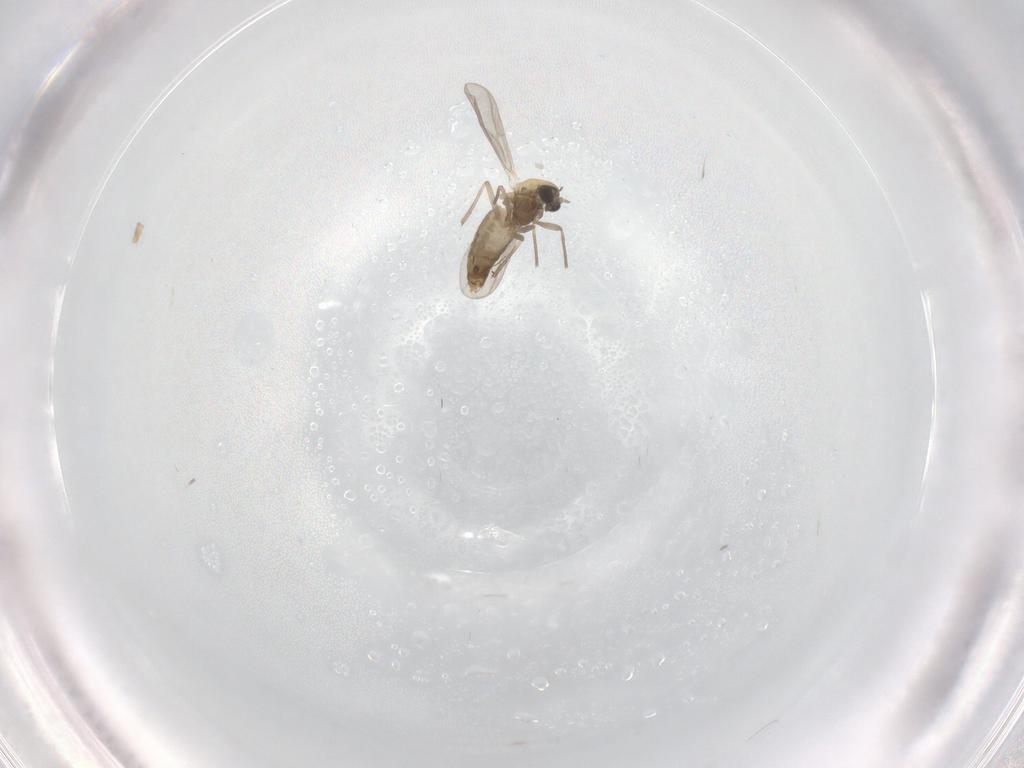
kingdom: Animalia
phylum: Arthropoda
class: Insecta
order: Diptera
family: Chironomidae
